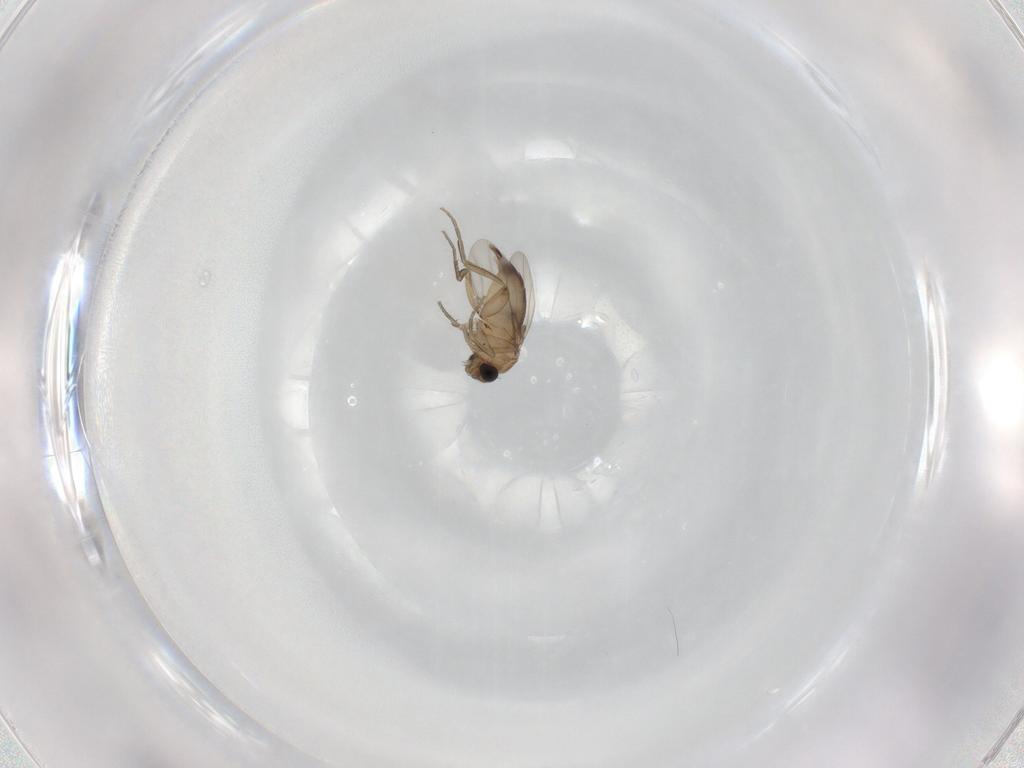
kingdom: Animalia
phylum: Arthropoda
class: Insecta
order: Diptera
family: Phoridae
